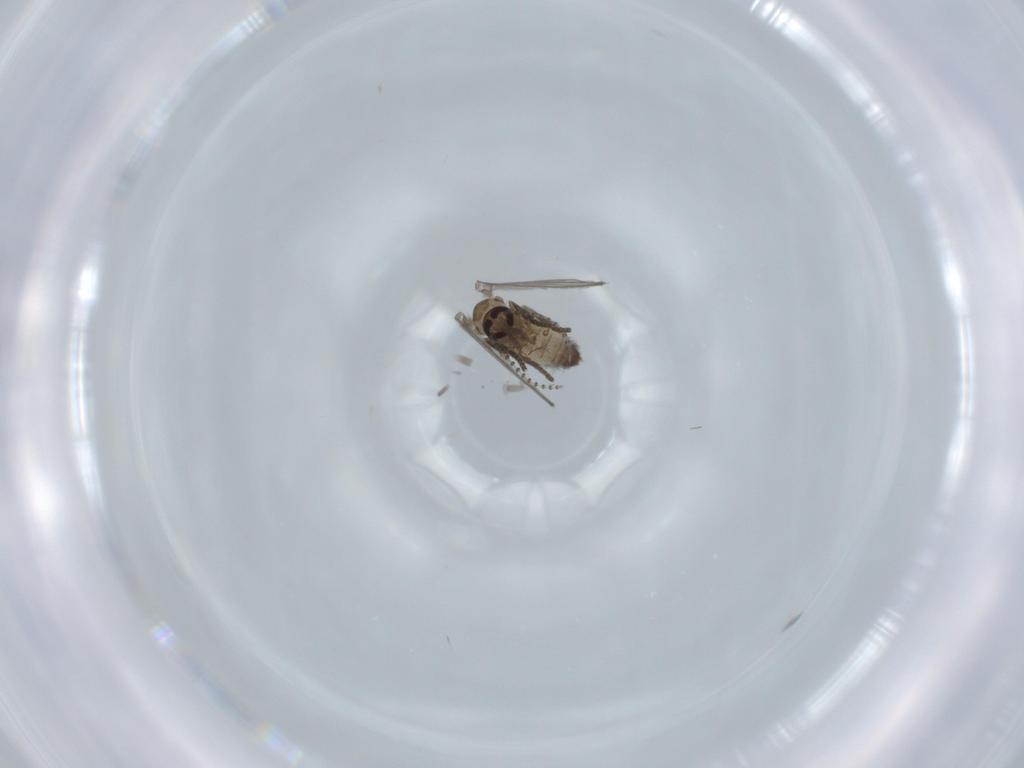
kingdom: Animalia
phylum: Arthropoda
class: Insecta
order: Diptera
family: Psychodidae
